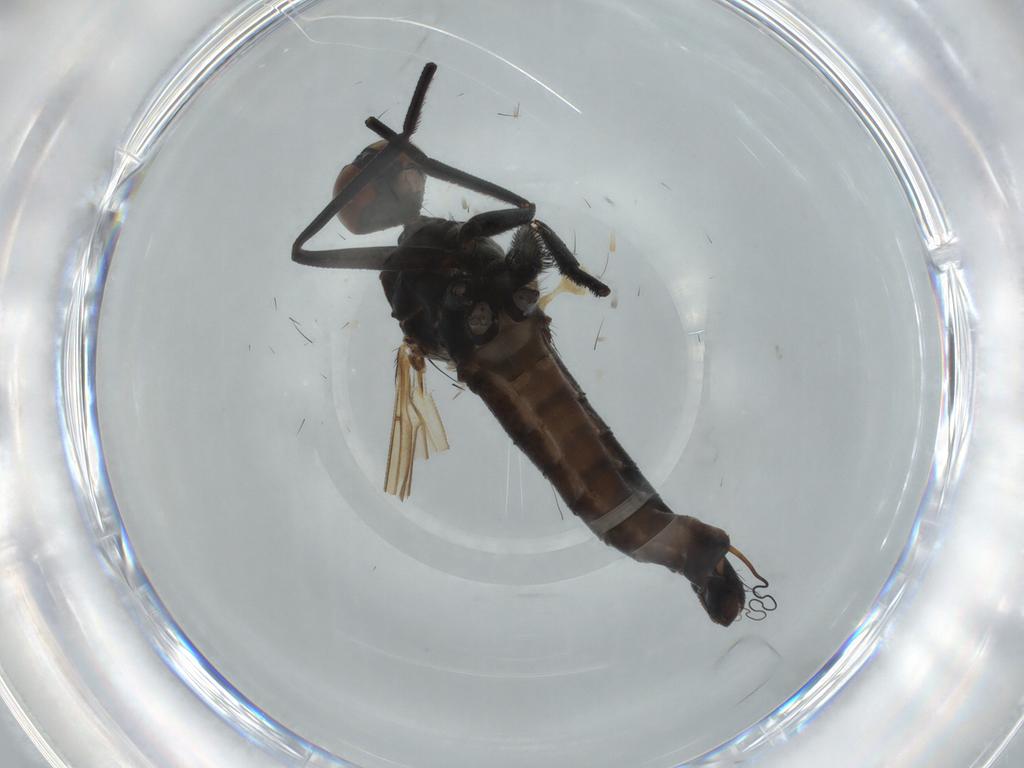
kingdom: Animalia
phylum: Arthropoda
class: Insecta
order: Diptera
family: Empididae
